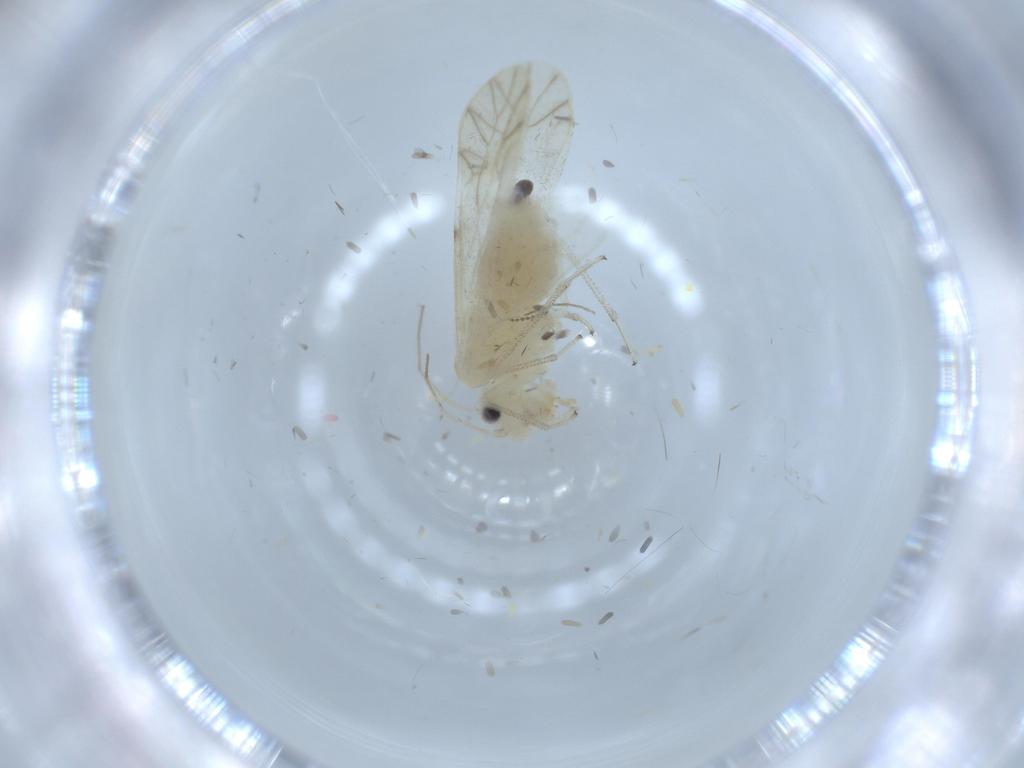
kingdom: Animalia
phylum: Arthropoda
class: Insecta
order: Psocodea
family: Caeciliusidae
